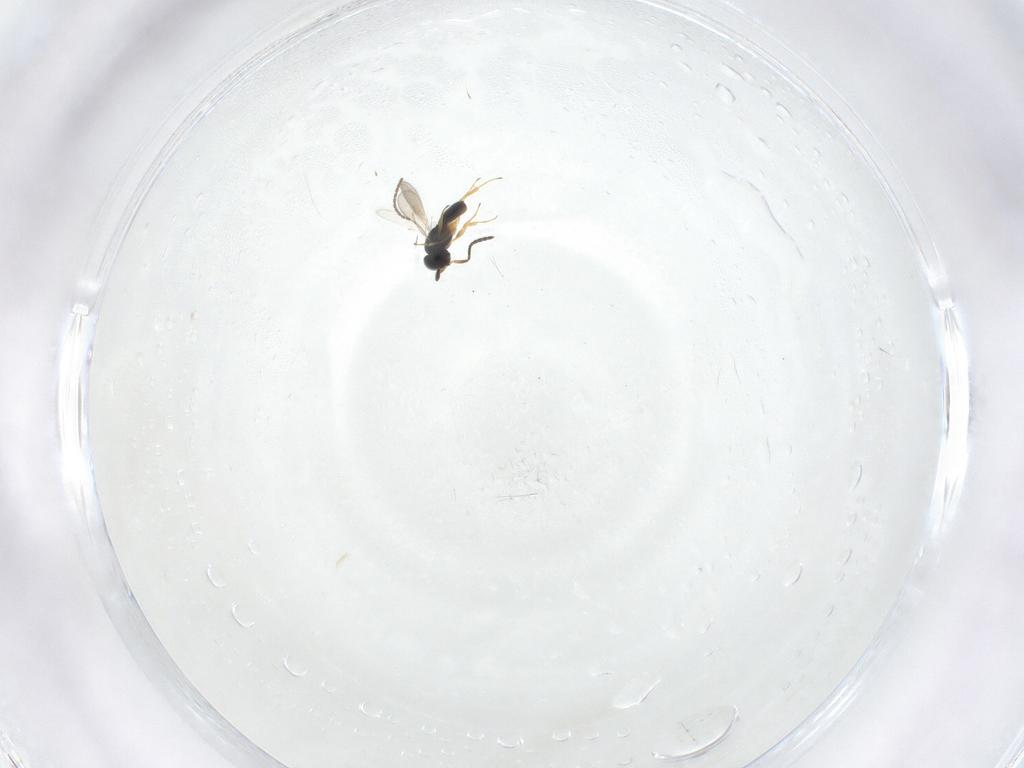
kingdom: Animalia
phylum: Arthropoda
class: Insecta
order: Hymenoptera
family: Scelionidae
